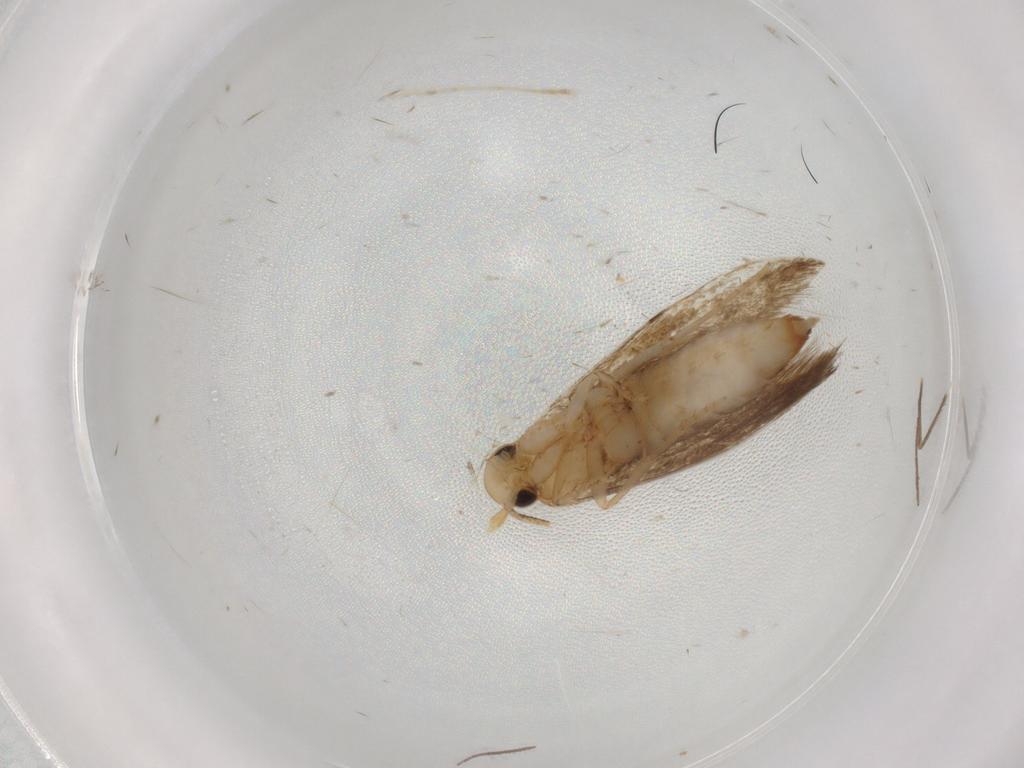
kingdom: Animalia
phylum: Arthropoda
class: Insecta
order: Lepidoptera
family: Tineidae
